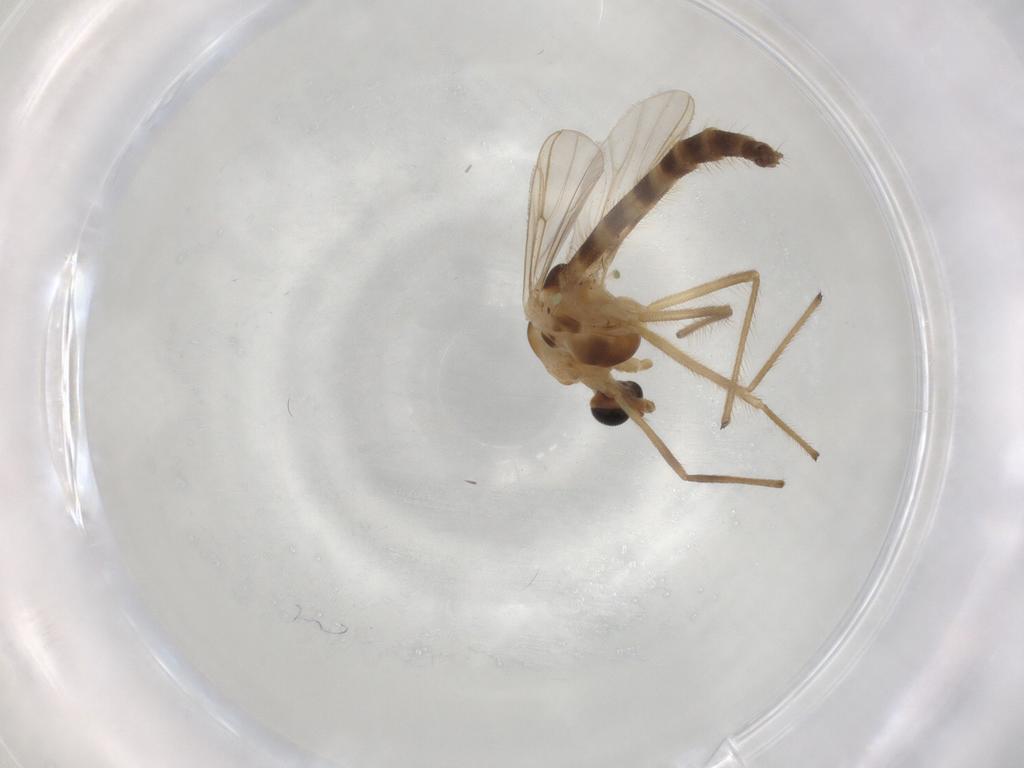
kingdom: Animalia
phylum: Arthropoda
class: Insecta
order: Diptera
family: Chironomidae
